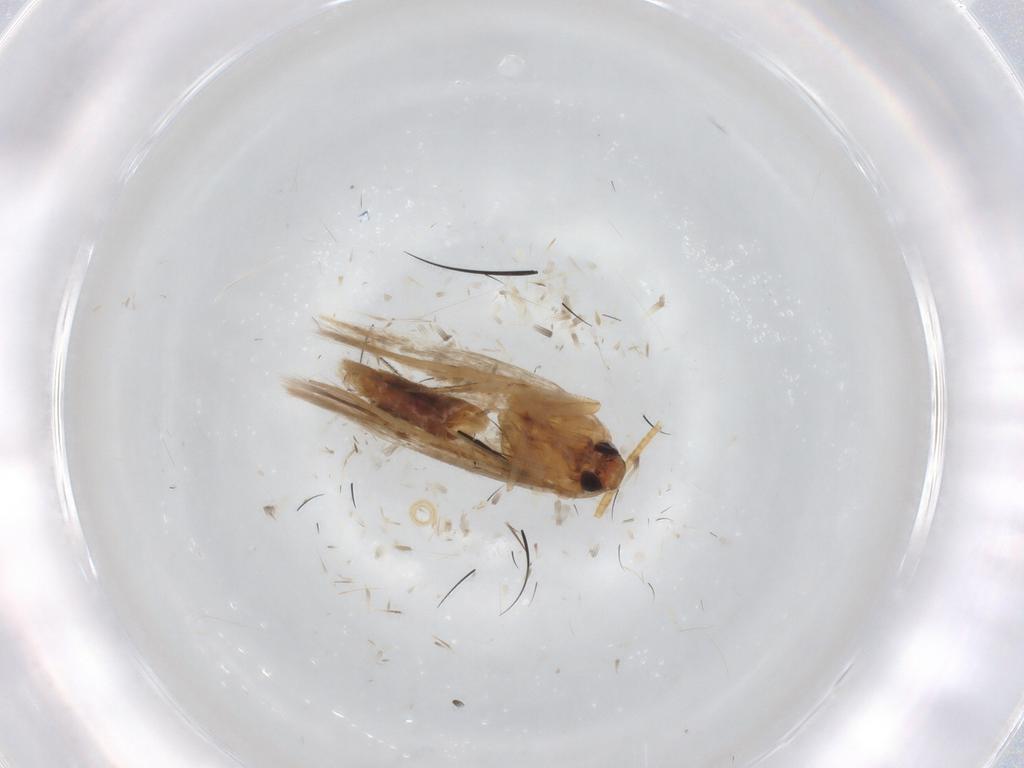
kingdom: Animalia
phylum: Arthropoda
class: Insecta
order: Lepidoptera
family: Cosmopterigidae
